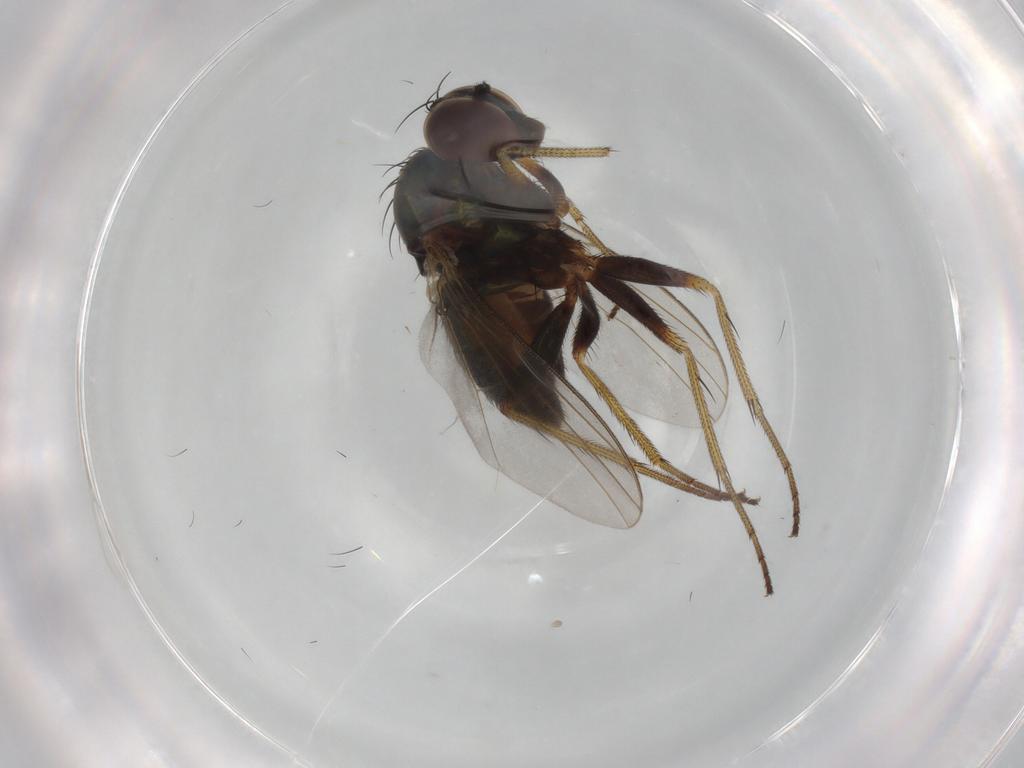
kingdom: Animalia
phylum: Arthropoda
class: Insecta
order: Diptera
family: Dolichopodidae
